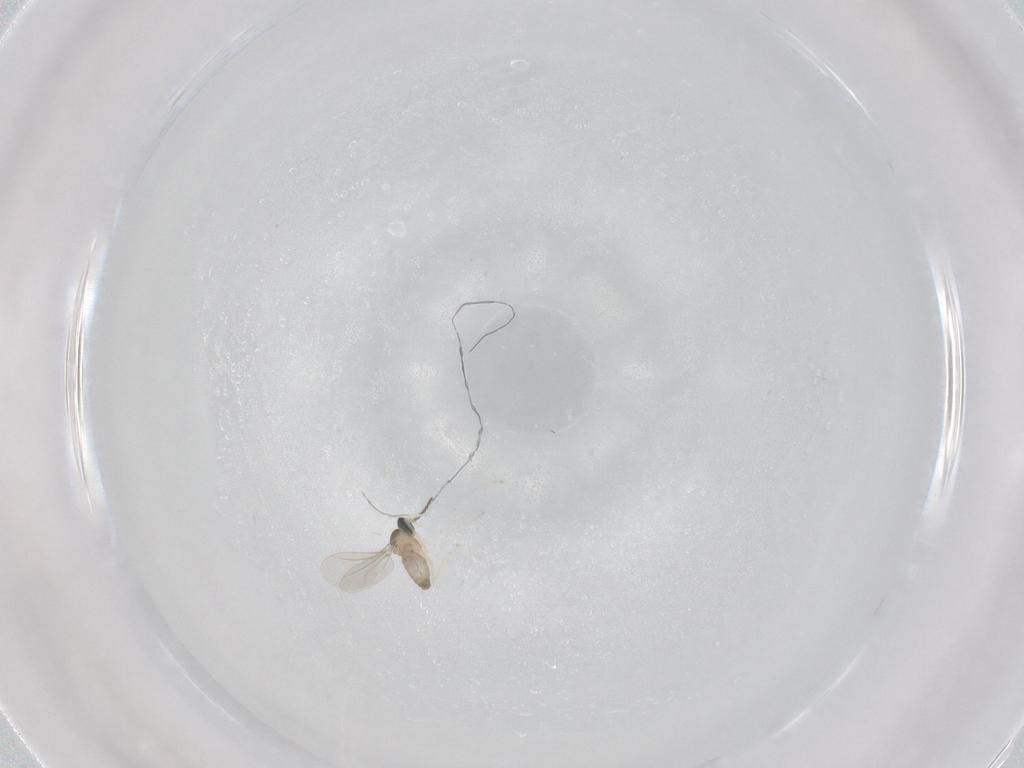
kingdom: Animalia
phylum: Arthropoda
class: Insecta
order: Diptera
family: Cecidomyiidae
